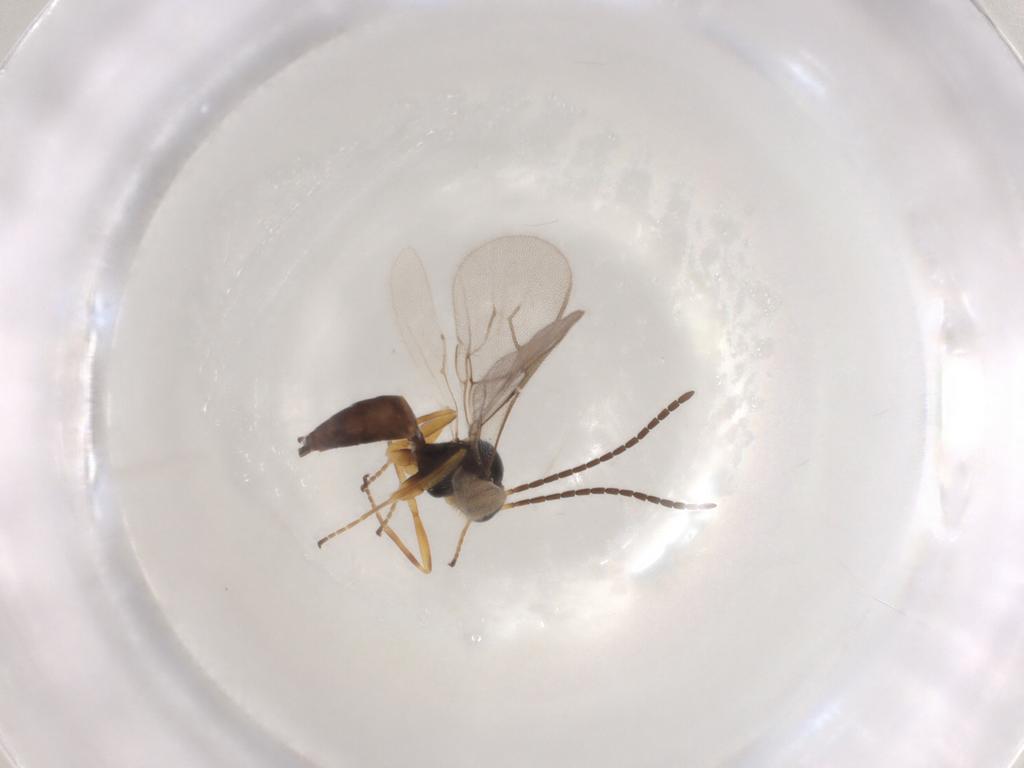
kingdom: Animalia
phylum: Arthropoda
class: Insecta
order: Hymenoptera
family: Braconidae
